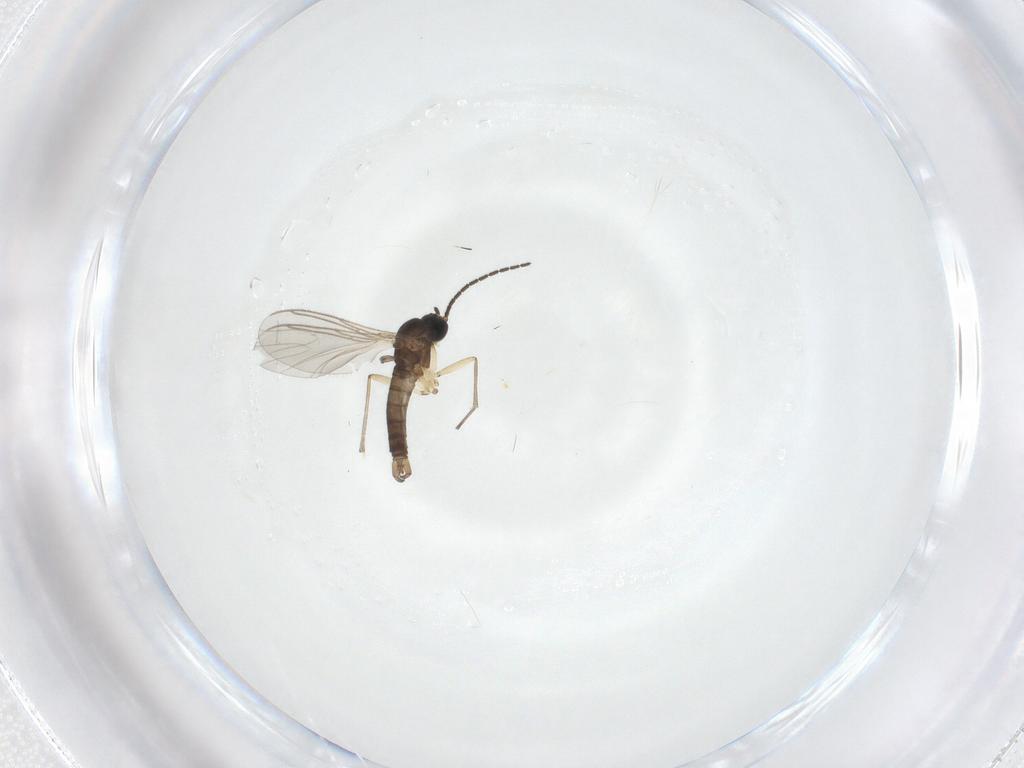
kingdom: Animalia
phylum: Arthropoda
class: Insecta
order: Diptera
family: Sciaridae
